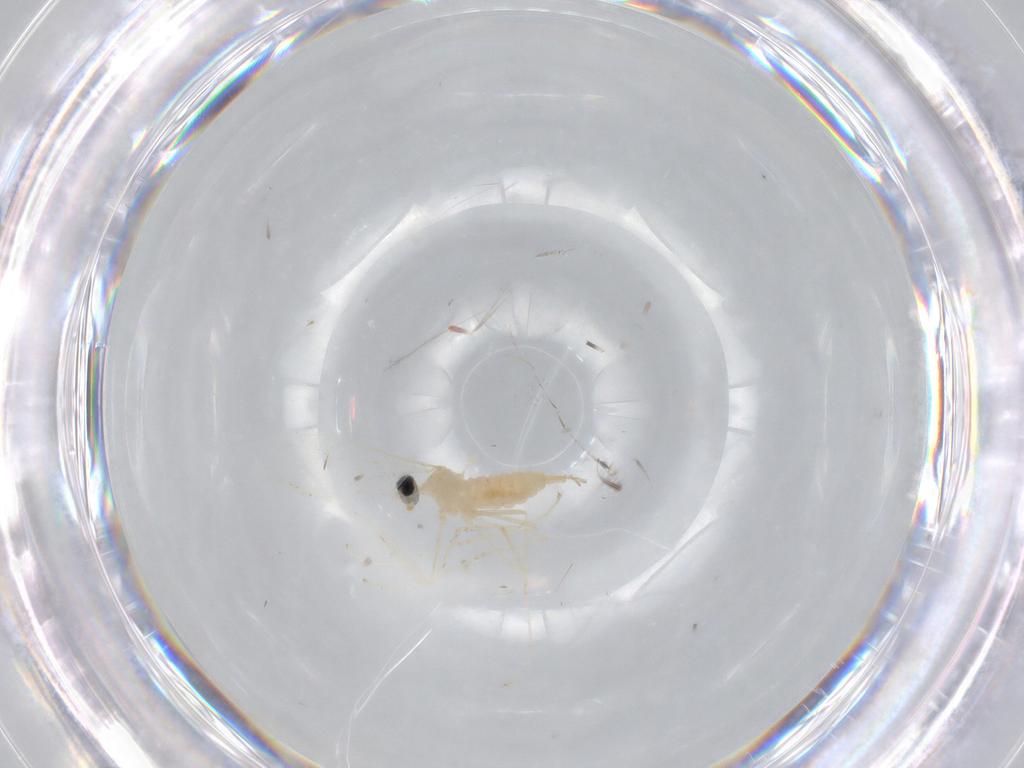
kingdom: Animalia
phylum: Arthropoda
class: Insecta
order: Diptera
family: Cecidomyiidae
